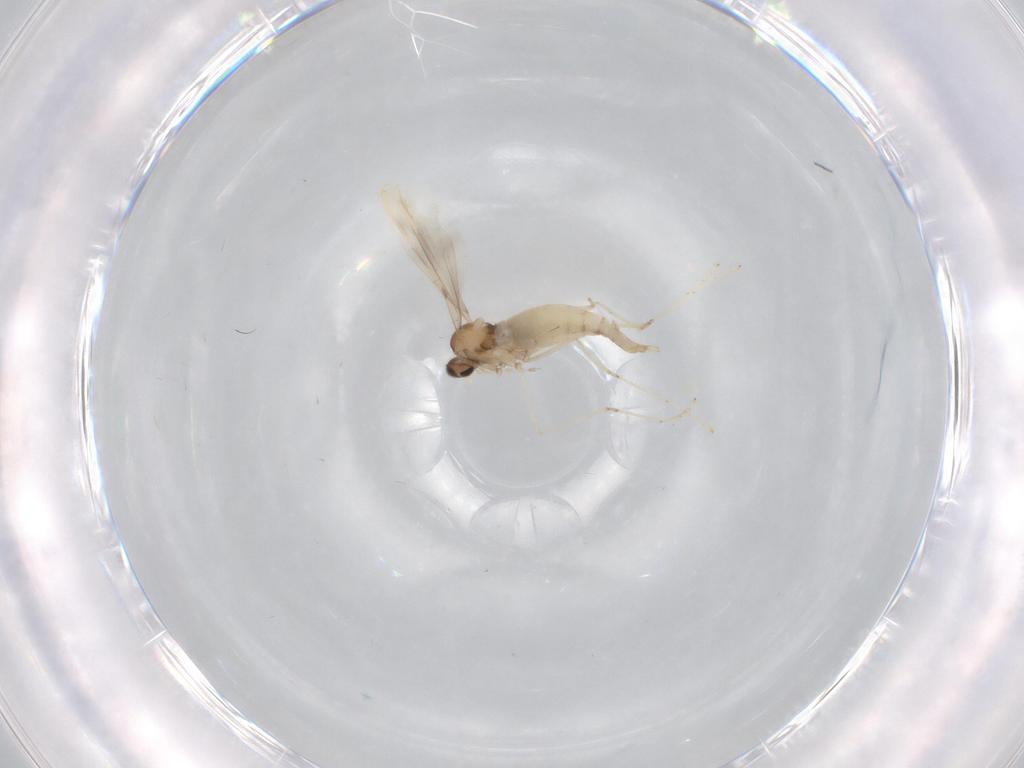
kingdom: Animalia
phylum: Arthropoda
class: Insecta
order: Diptera
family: Cecidomyiidae
